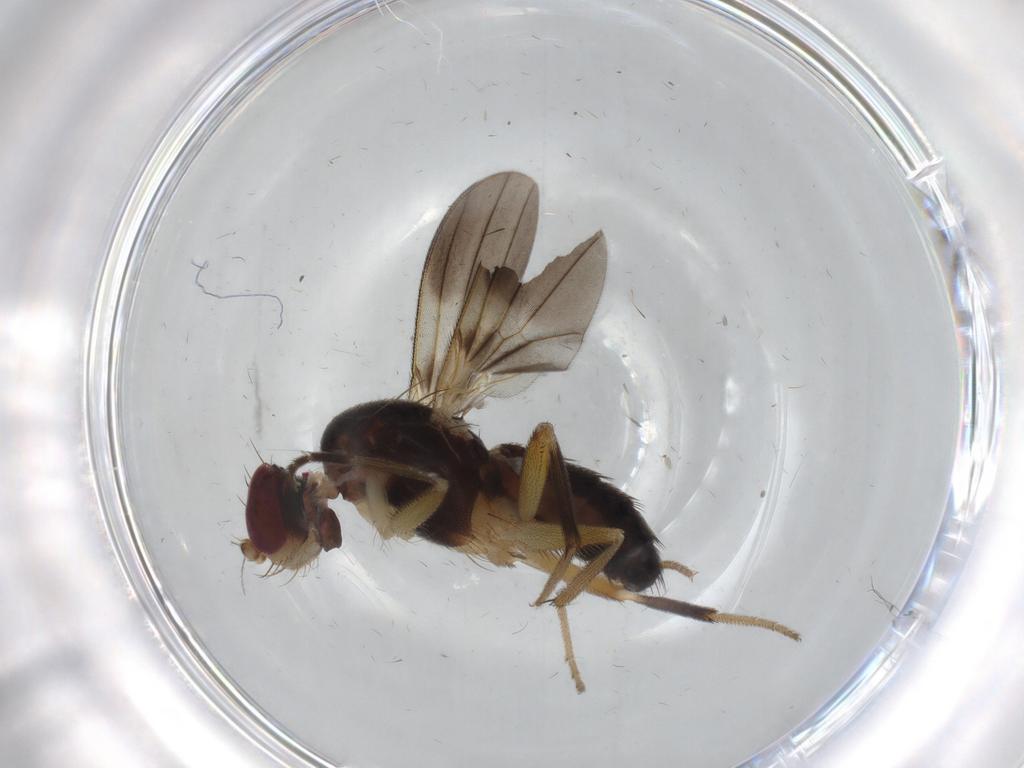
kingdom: Animalia
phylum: Arthropoda
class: Insecta
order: Diptera
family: Clusiidae
